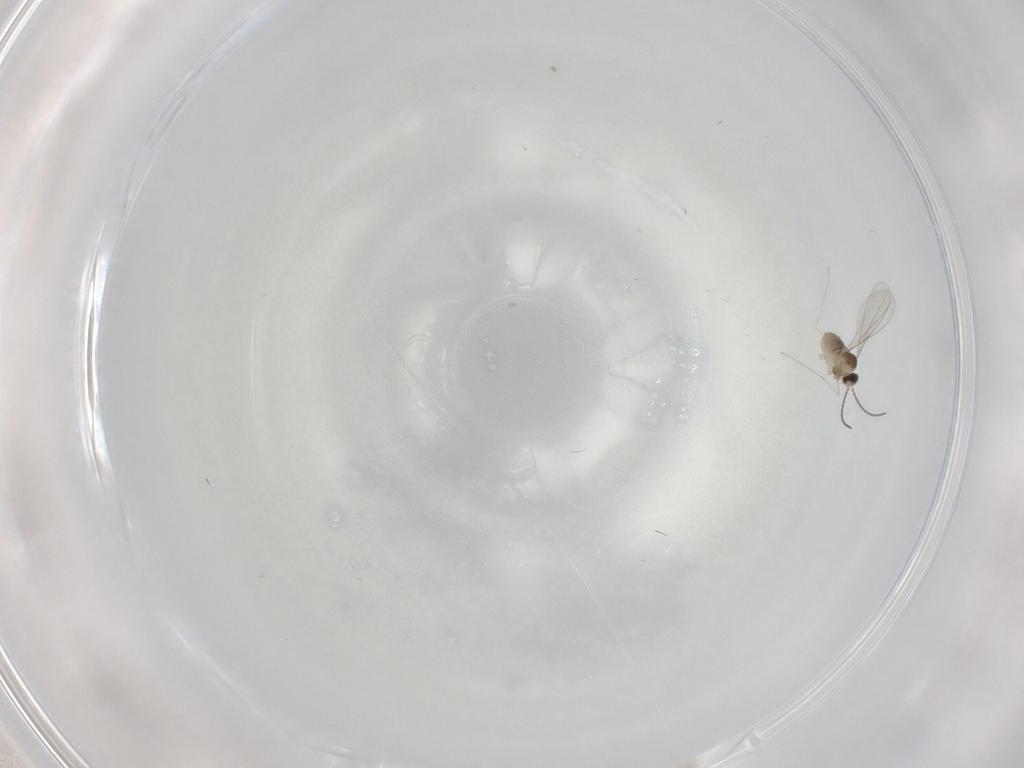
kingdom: Animalia
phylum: Arthropoda
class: Insecta
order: Diptera
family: Cecidomyiidae
